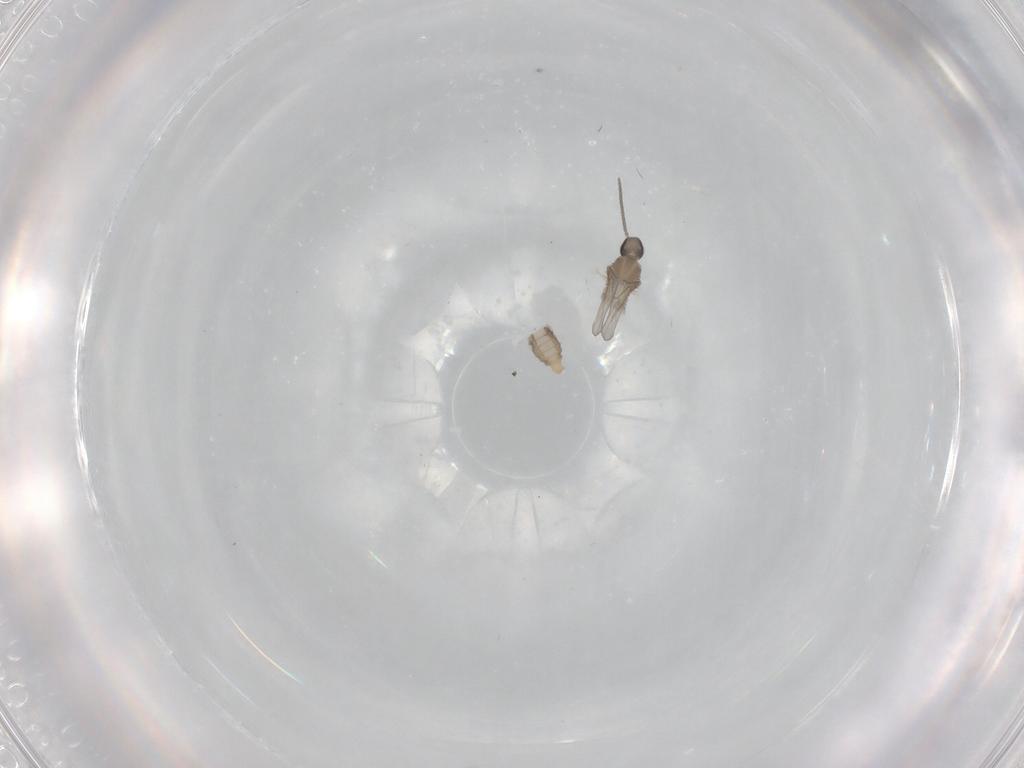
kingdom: Animalia
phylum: Arthropoda
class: Insecta
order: Diptera
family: Cecidomyiidae
